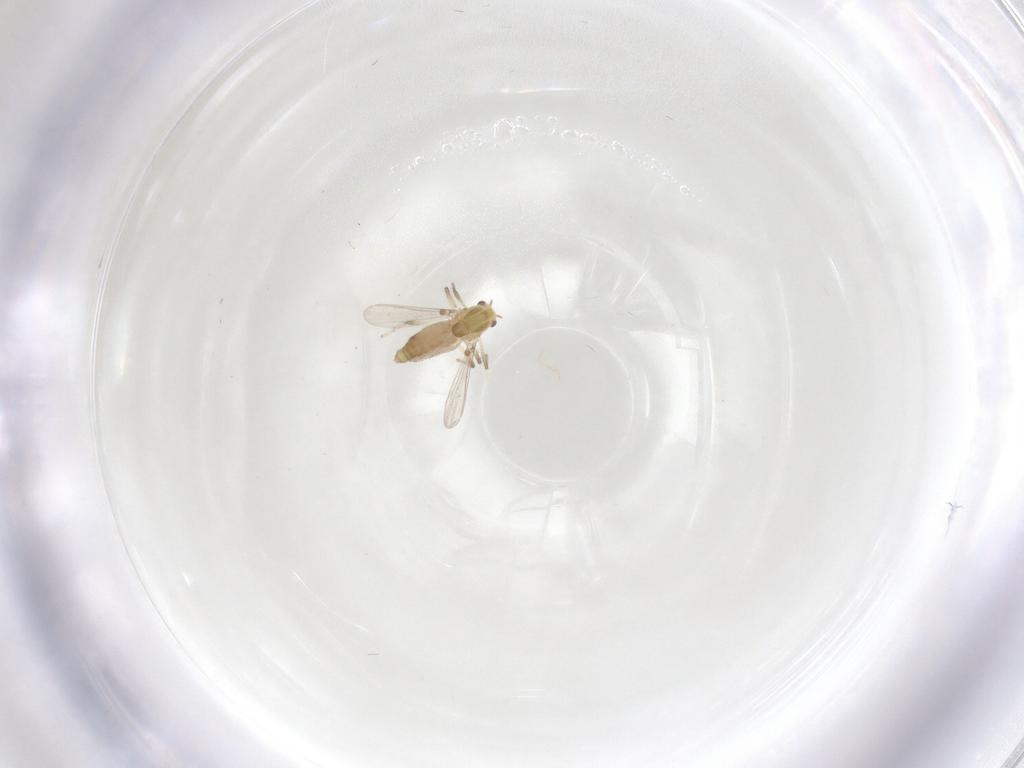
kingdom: Animalia
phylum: Arthropoda
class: Insecta
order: Diptera
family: Chironomidae
